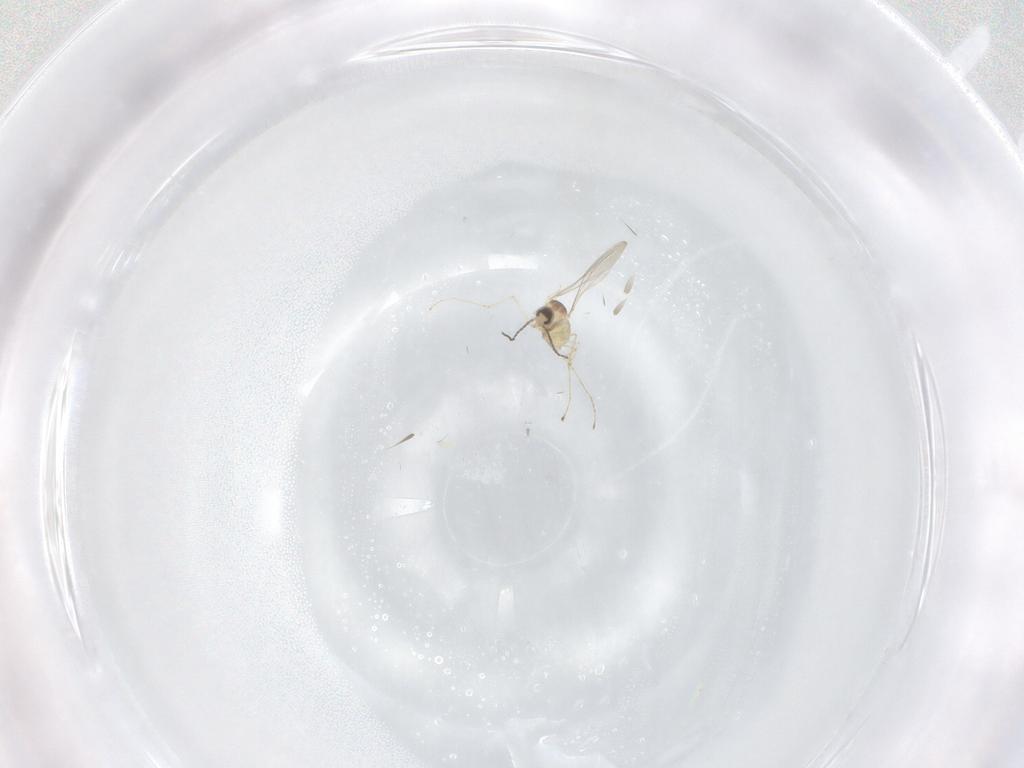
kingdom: Animalia
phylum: Arthropoda
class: Insecta
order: Diptera
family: Cecidomyiidae
